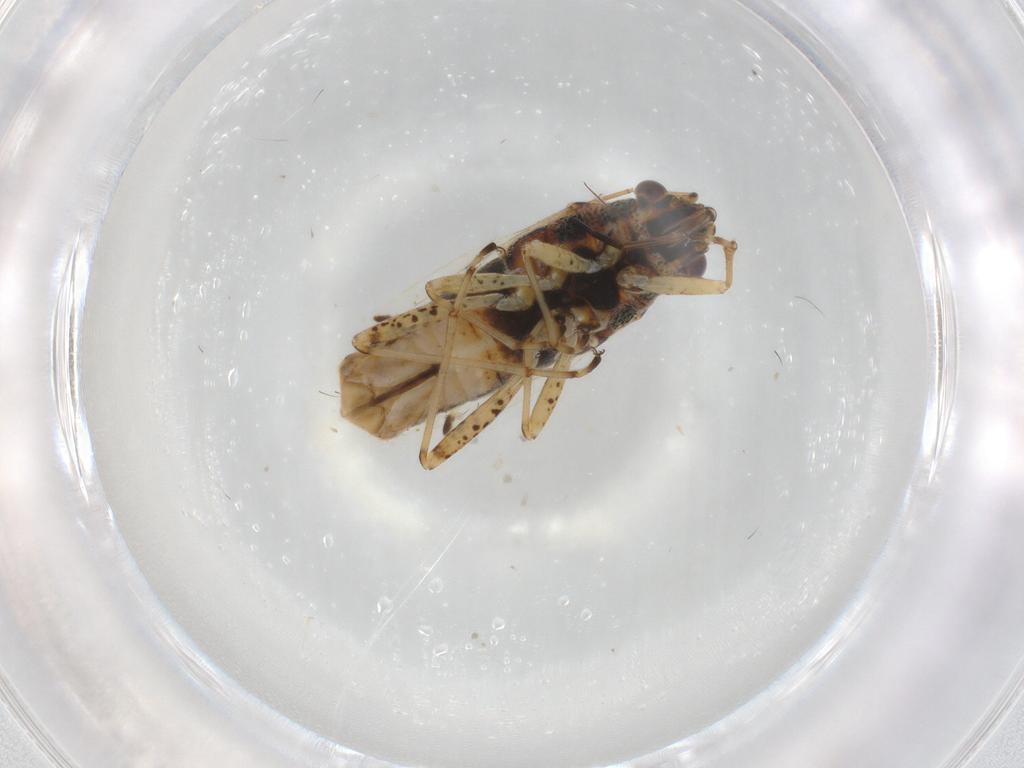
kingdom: Animalia
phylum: Arthropoda
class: Insecta
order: Hemiptera
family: Lygaeidae
